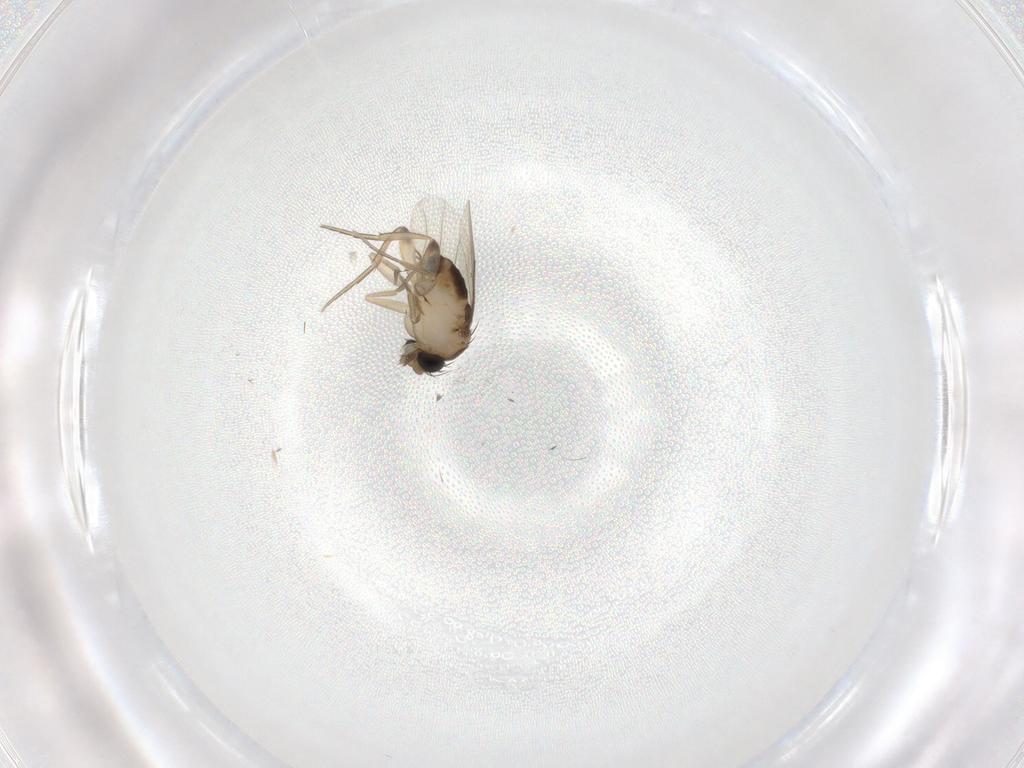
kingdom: Animalia
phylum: Arthropoda
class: Insecta
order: Diptera
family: Phoridae
